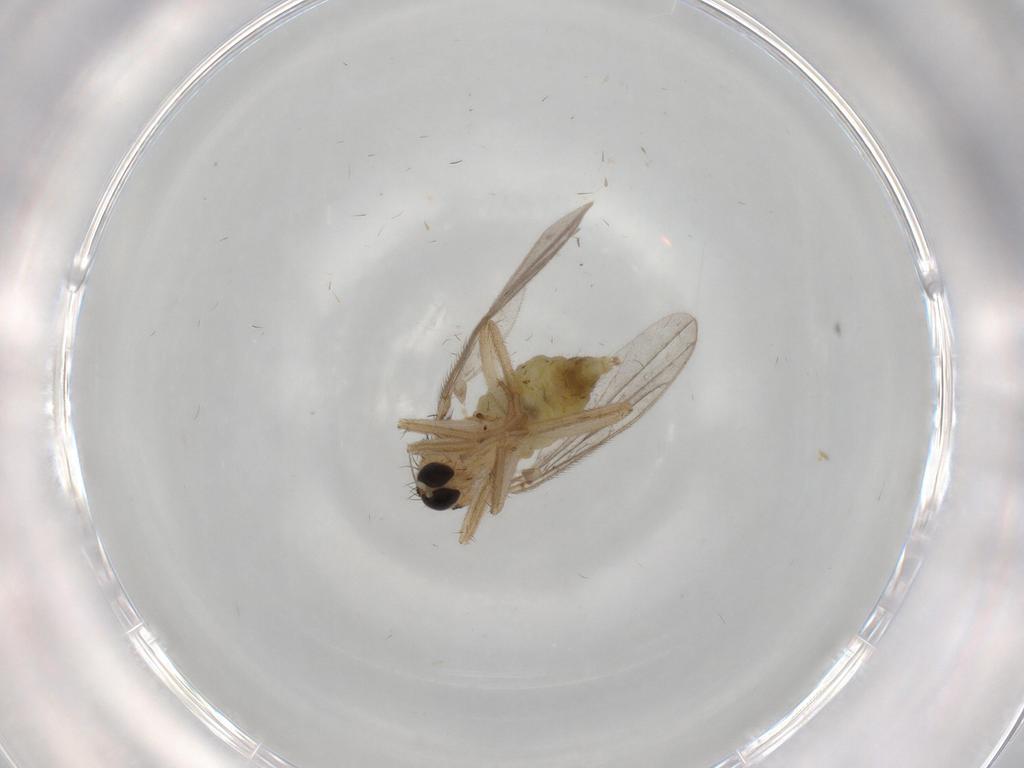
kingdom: Animalia
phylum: Arthropoda
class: Insecta
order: Diptera
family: Hybotidae
